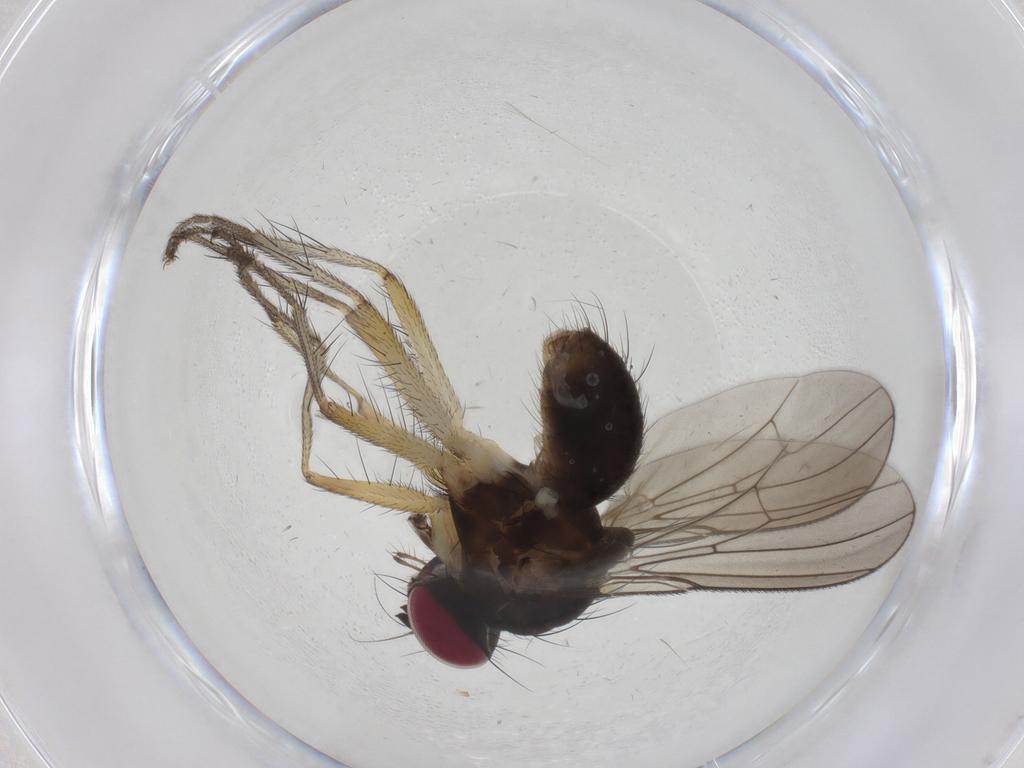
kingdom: Animalia
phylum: Arthropoda
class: Insecta
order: Diptera
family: Anthomyiidae
